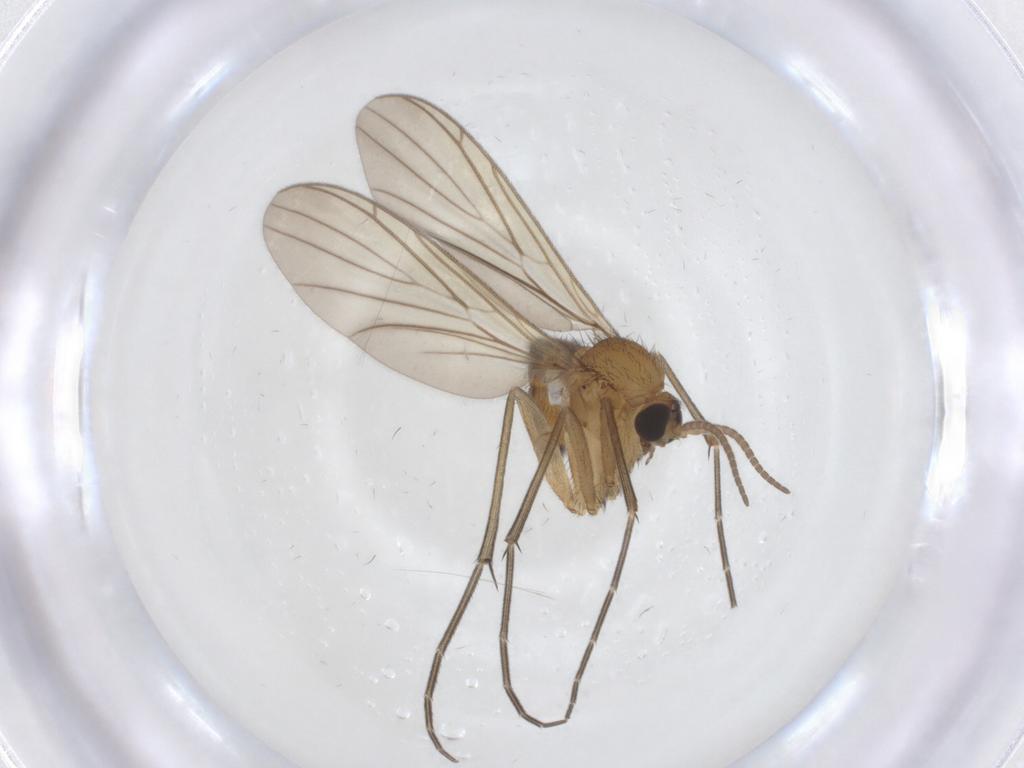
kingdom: Animalia
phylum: Arthropoda
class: Insecta
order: Diptera
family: Keroplatidae
